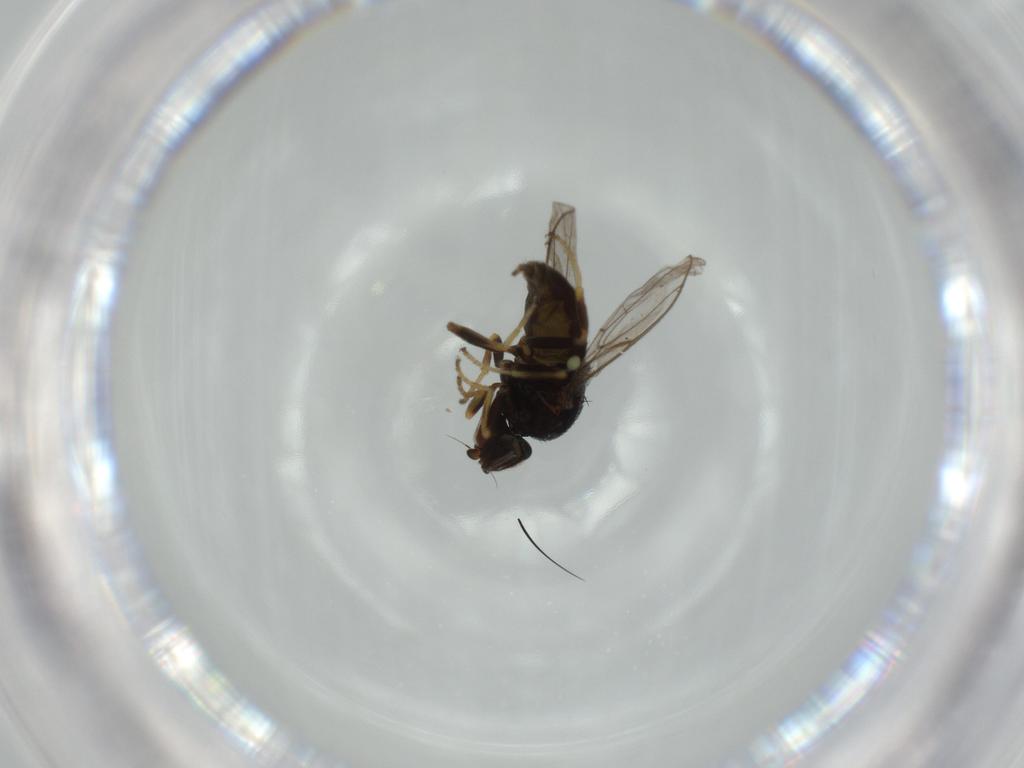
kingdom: Animalia
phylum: Arthropoda
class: Insecta
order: Diptera
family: Chloropidae
